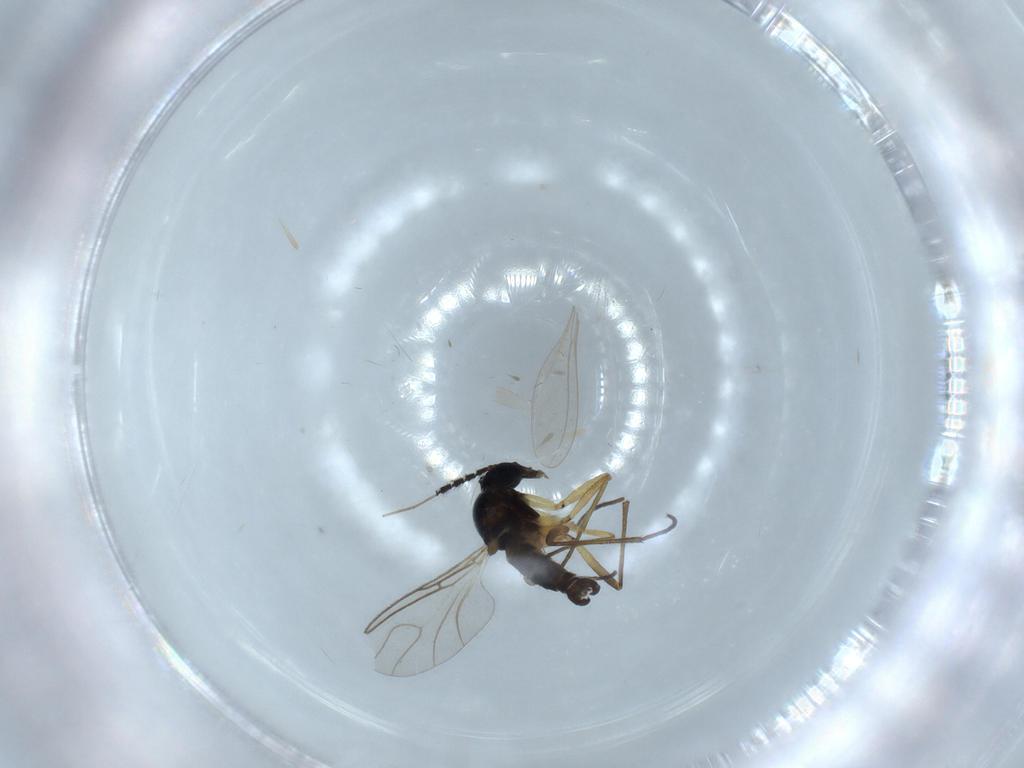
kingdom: Animalia
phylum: Arthropoda
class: Insecta
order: Diptera
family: Sciaridae
